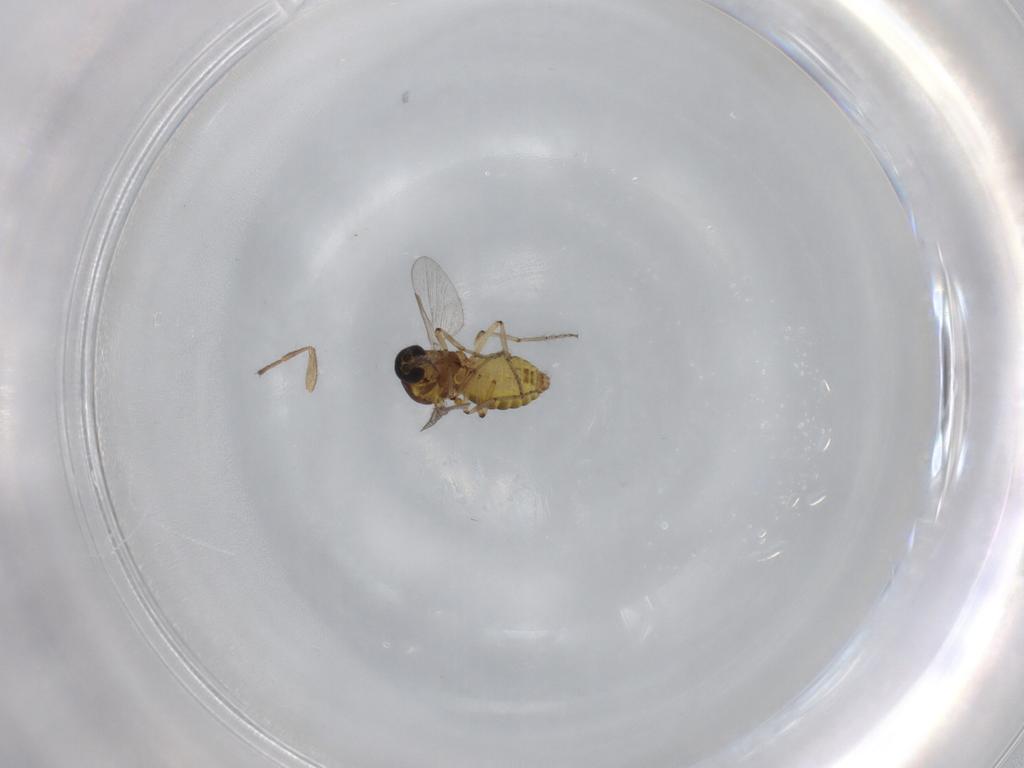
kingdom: Animalia
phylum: Arthropoda
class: Insecta
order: Diptera
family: Ceratopogonidae
